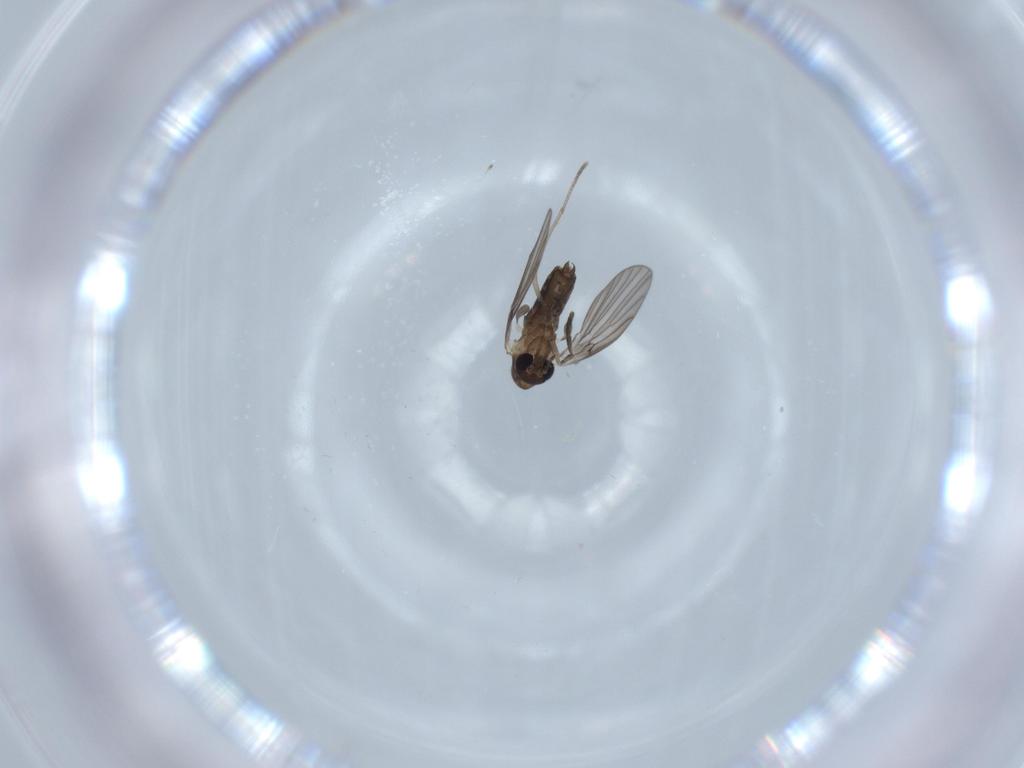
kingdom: Animalia
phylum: Arthropoda
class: Insecta
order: Diptera
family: Psychodidae
